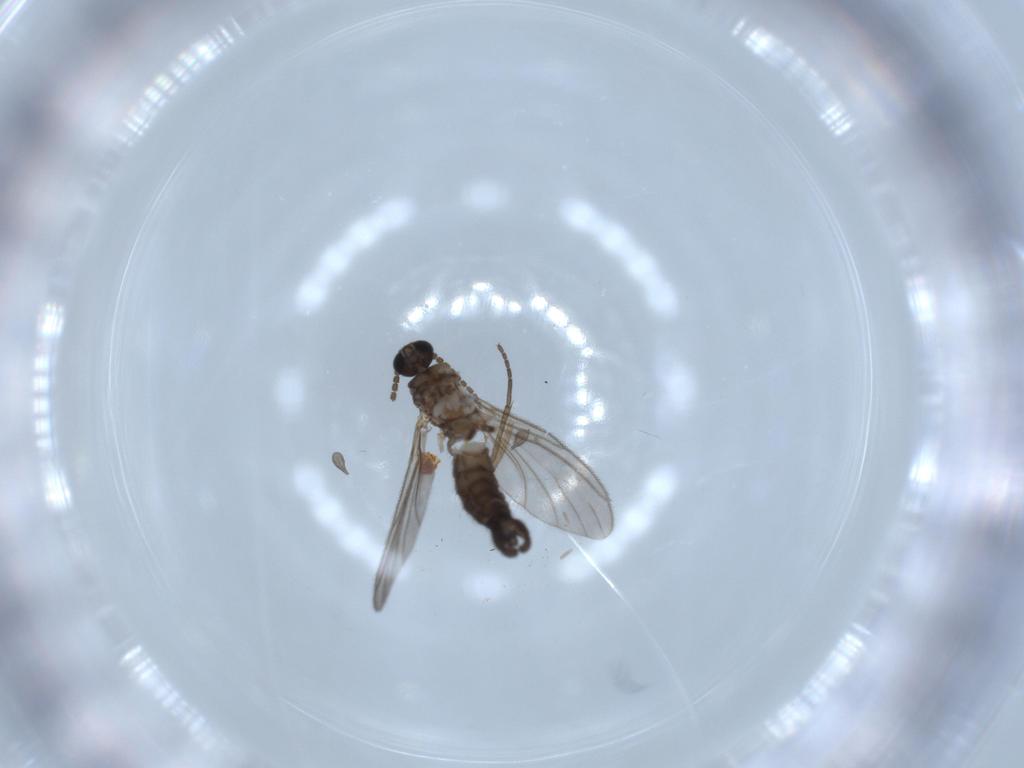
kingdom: Animalia
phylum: Arthropoda
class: Insecta
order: Diptera
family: Sciaridae
